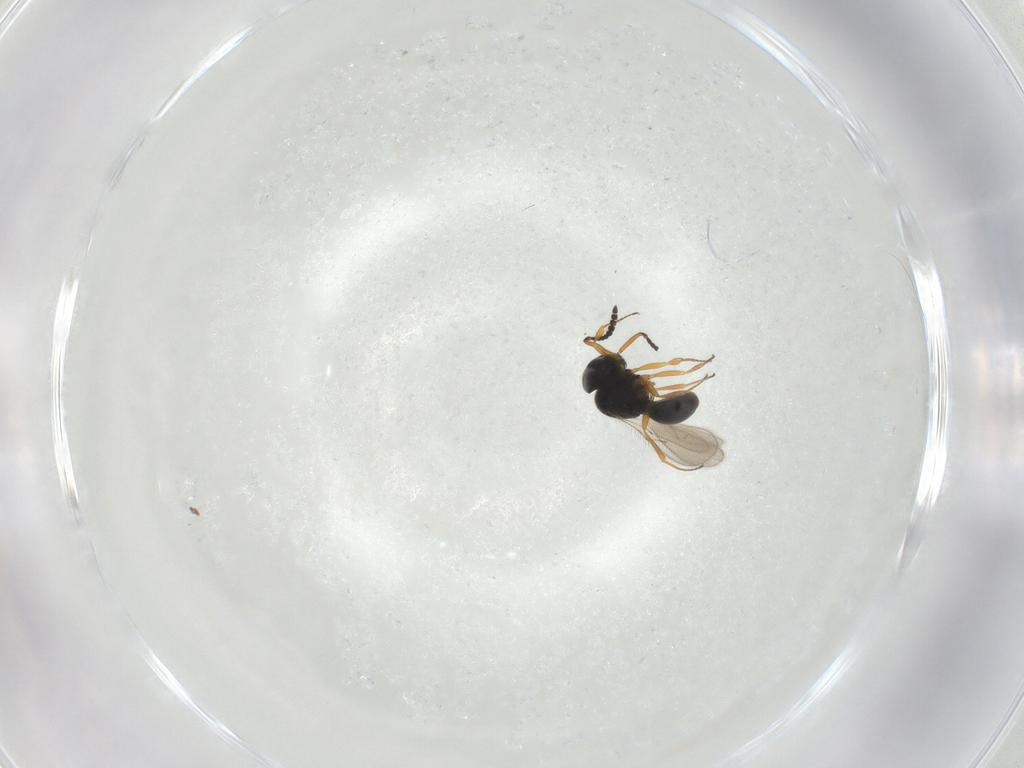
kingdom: Animalia
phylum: Arthropoda
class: Insecta
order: Hymenoptera
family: Scelionidae
